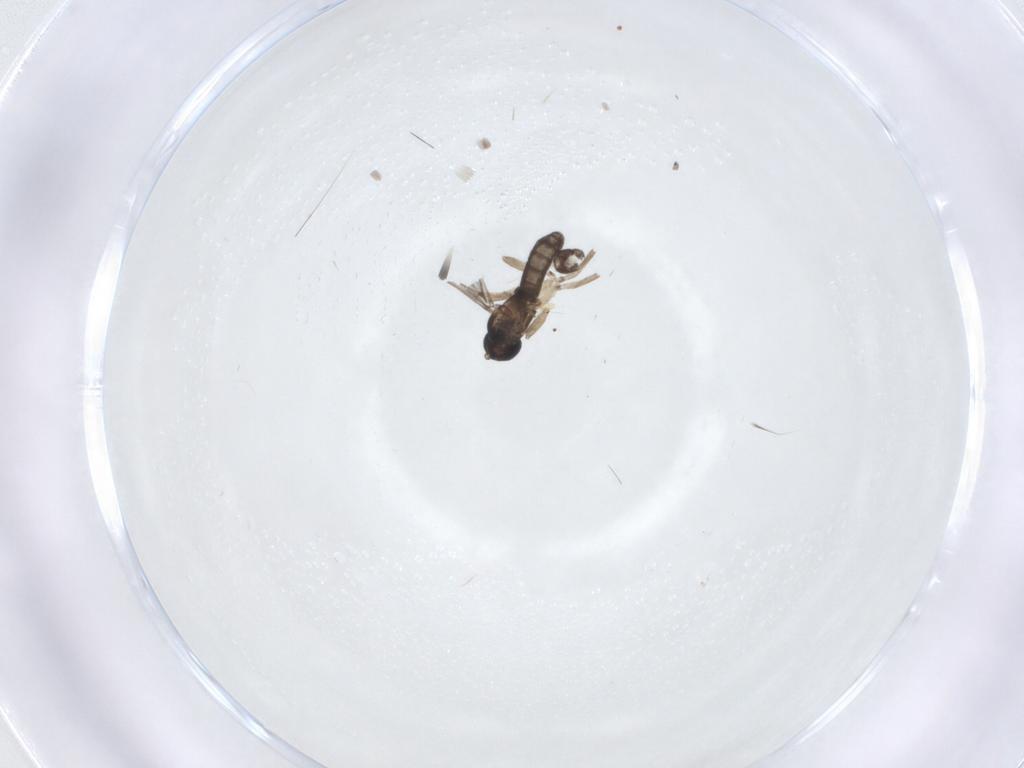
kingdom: Animalia
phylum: Arthropoda
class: Insecta
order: Diptera
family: Sciaridae
